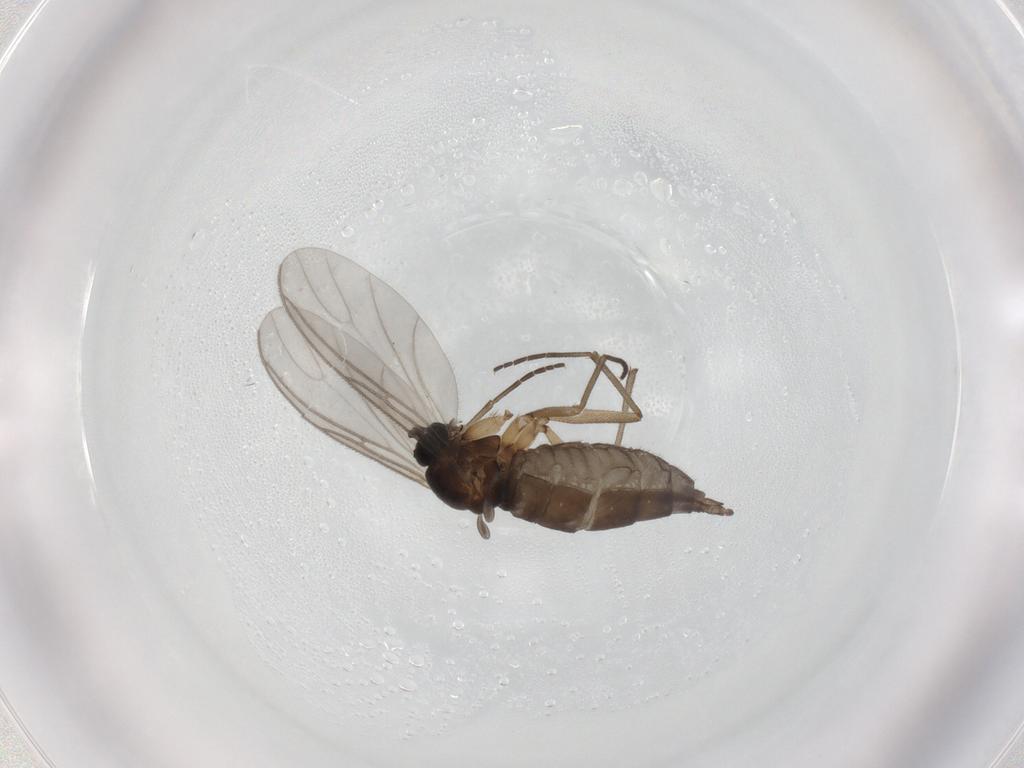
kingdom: Animalia
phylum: Arthropoda
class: Insecta
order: Diptera
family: Sciaridae
